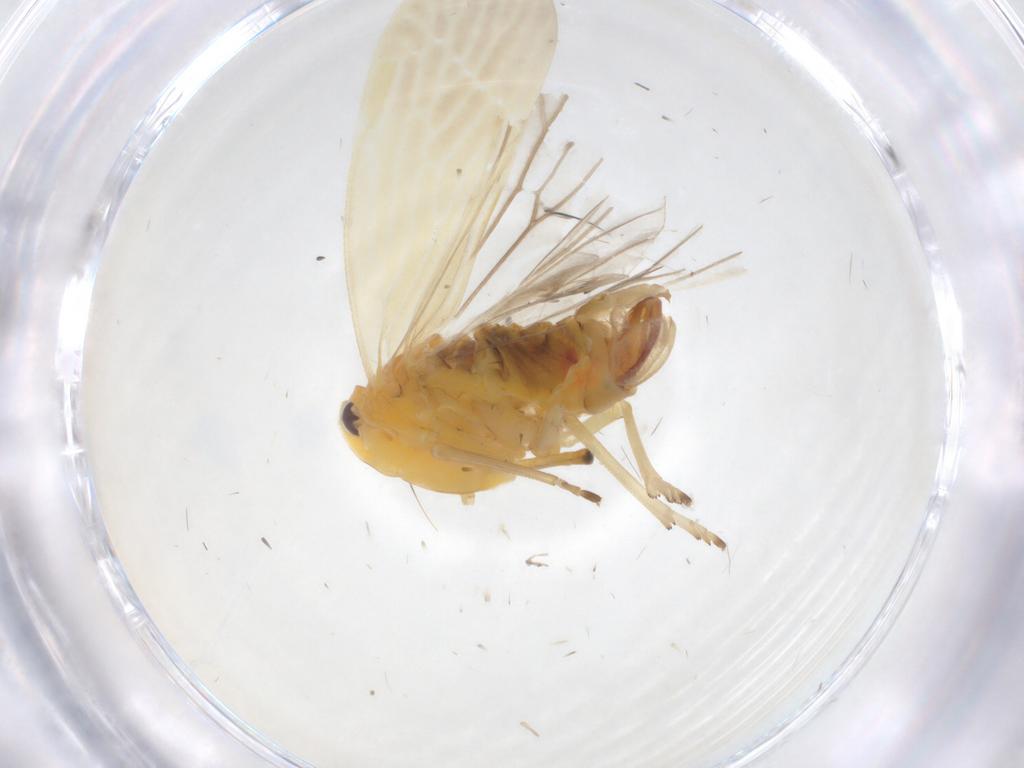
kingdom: Animalia
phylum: Arthropoda
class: Insecta
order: Hemiptera
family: Derbidae
